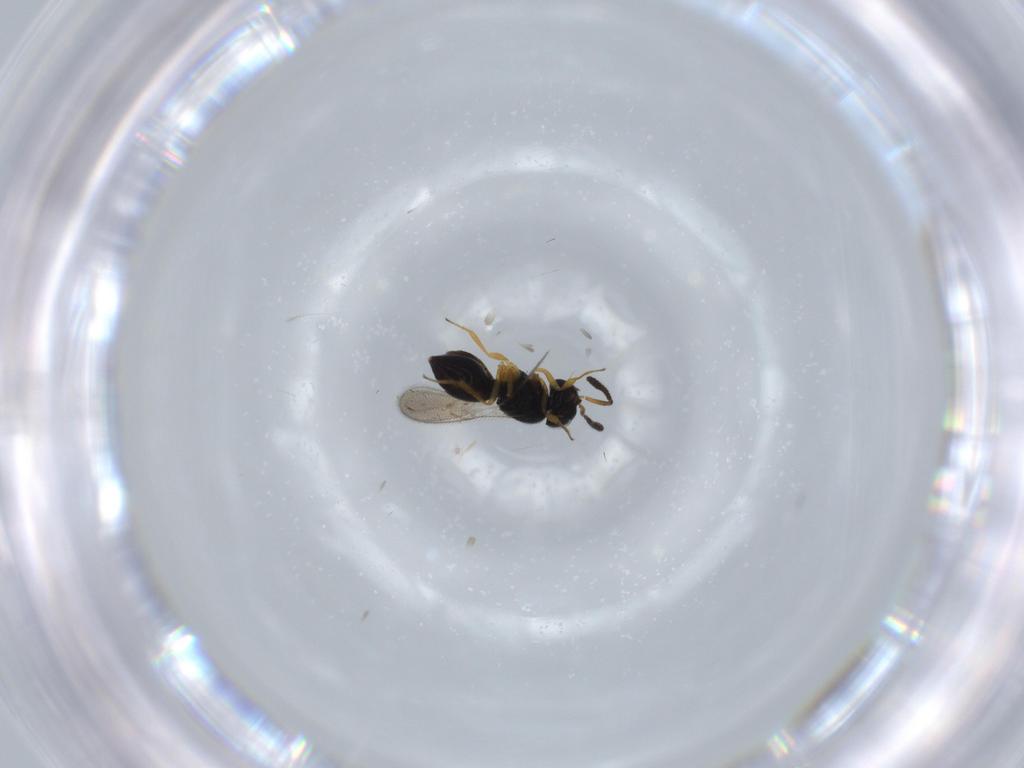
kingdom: Animalia
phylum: Arthropoda
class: Insecta
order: Hymenoptera
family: Scelionidae
